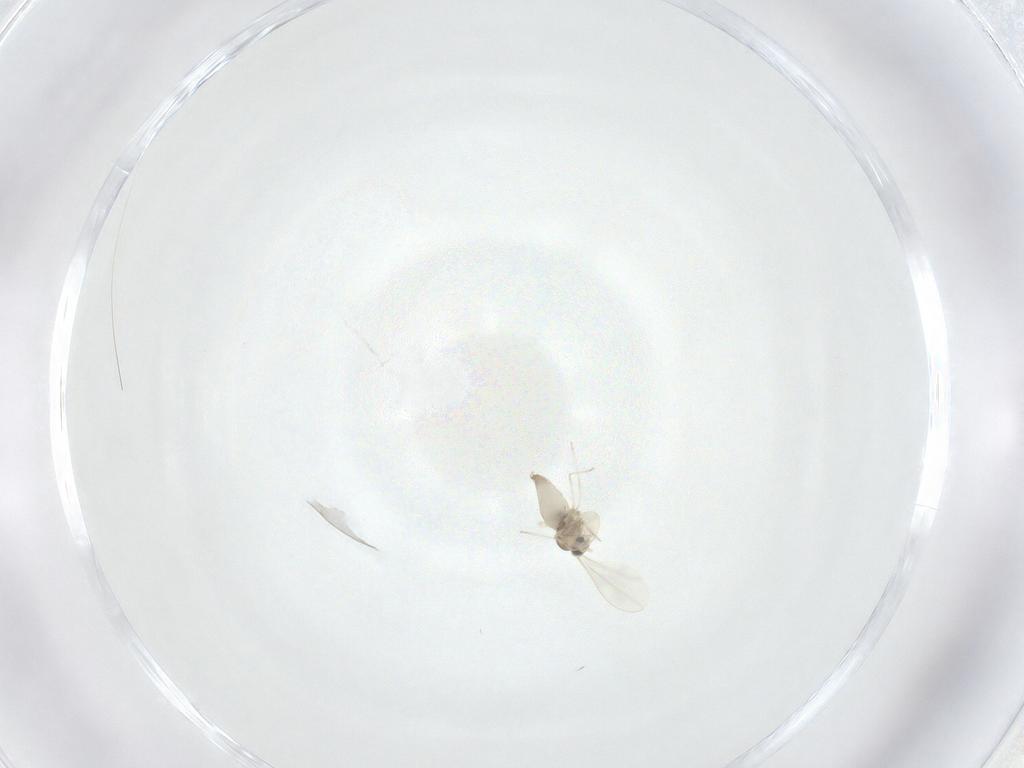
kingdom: Animalia
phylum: Arthropoda
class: Insecta
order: Diptera
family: Cecidomyiidae
